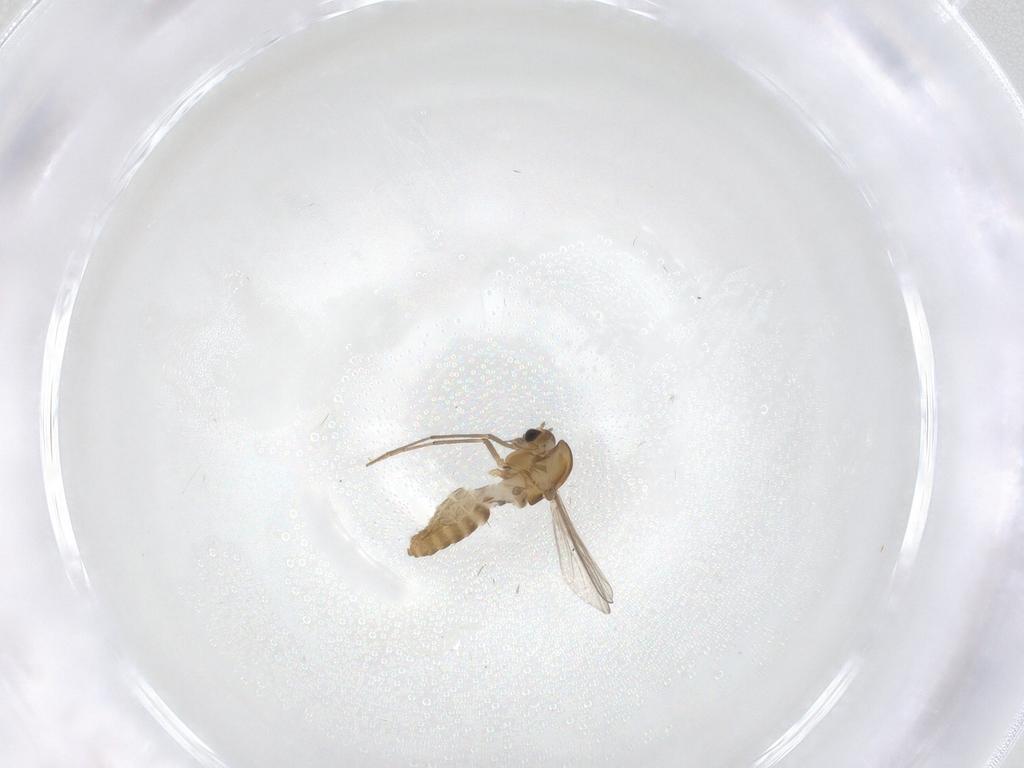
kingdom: Animalia
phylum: Arthropoda
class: Insecta
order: Diptera
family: Chironomidae
